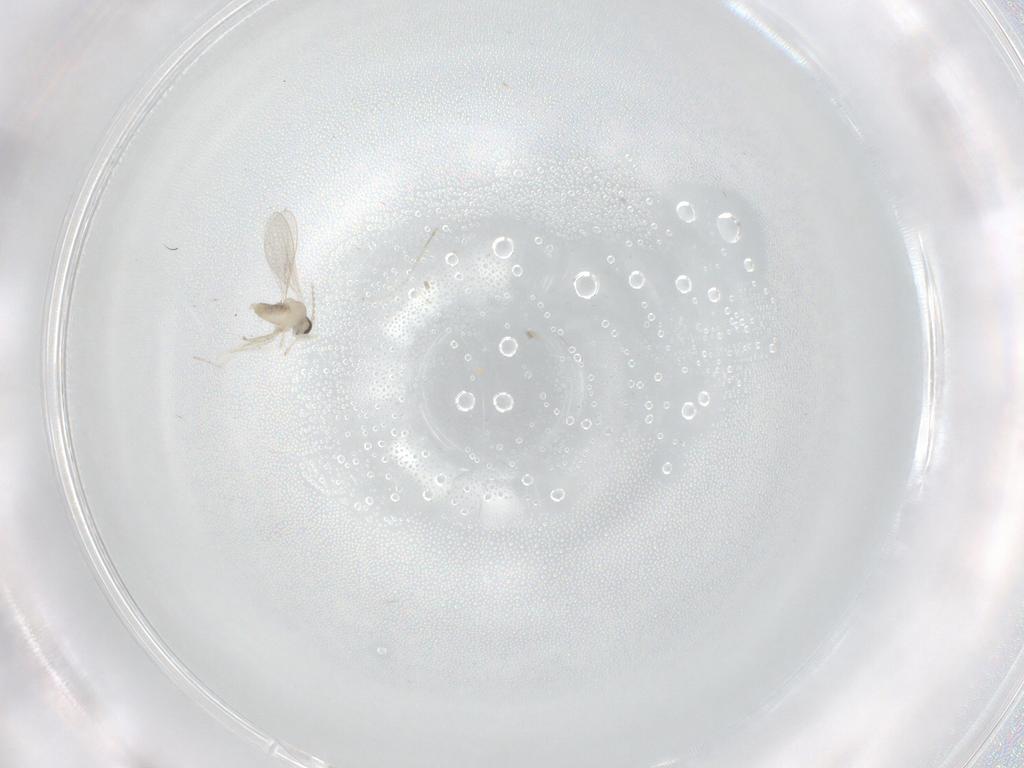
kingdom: Animalia
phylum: Arthropoda
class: Insecta
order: Diptera
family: Cecidomyiidae
